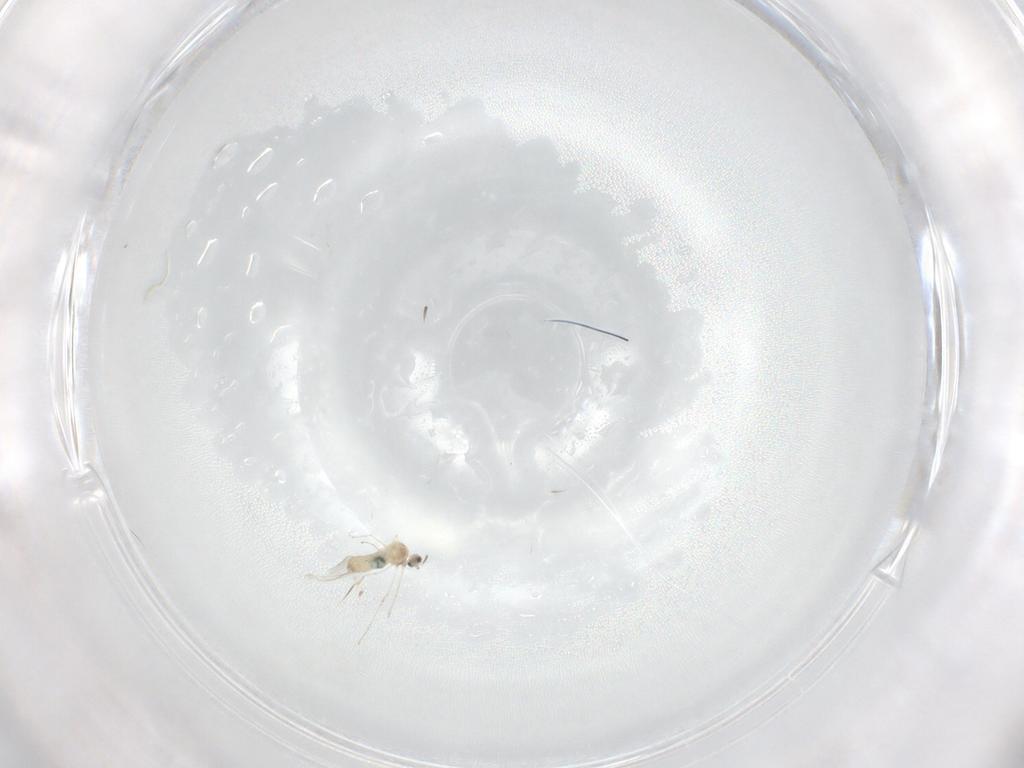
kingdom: Animalia
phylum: Arthropoda
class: Insecta
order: Diptera
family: Cecidomyiidae
